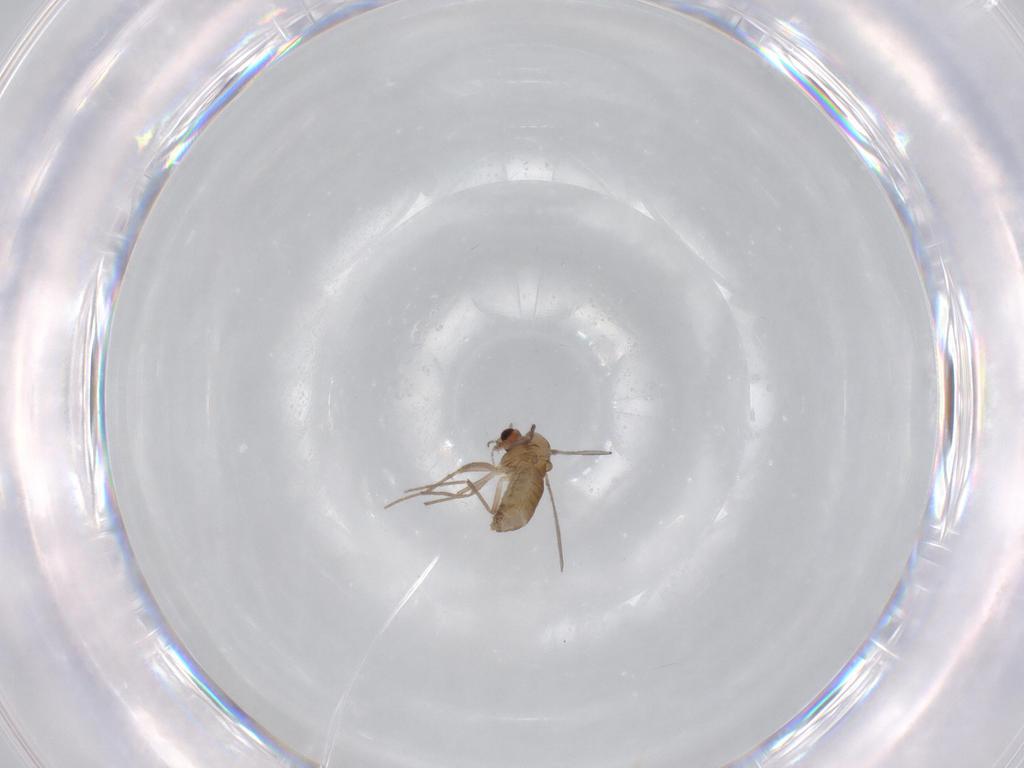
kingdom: Animalia
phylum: Arthropoda
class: Insecta
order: Diptera
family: Chironomidae
